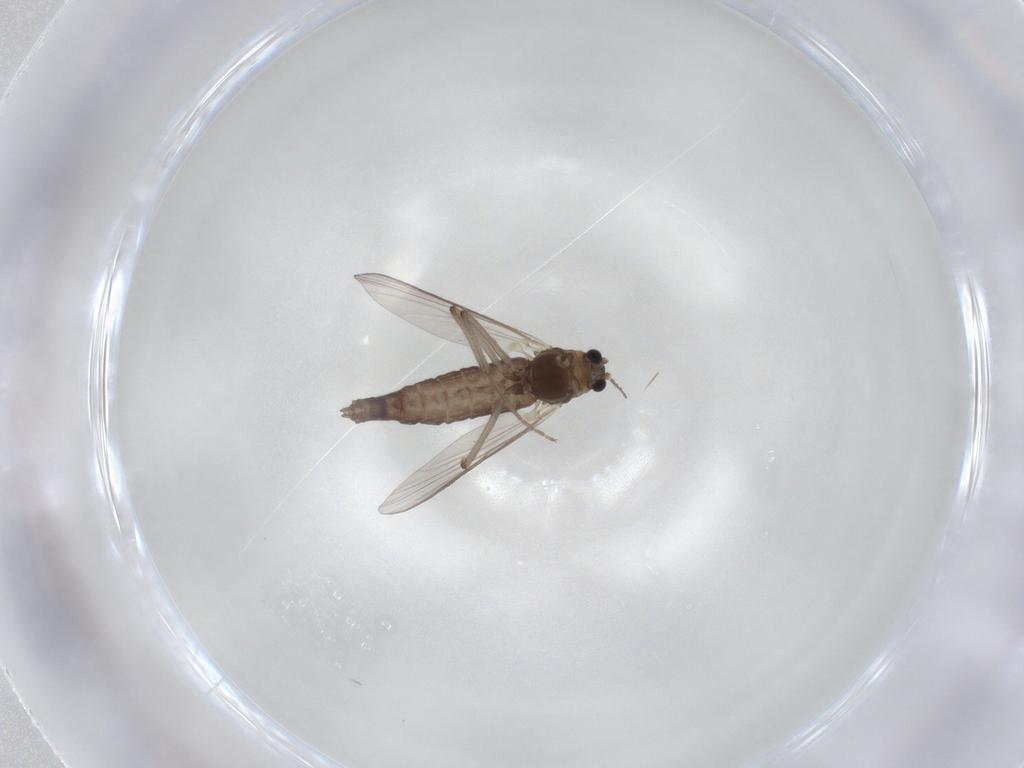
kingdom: Animalia
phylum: Arthropoda
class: Insecta
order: Diptera
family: Chironomidae
